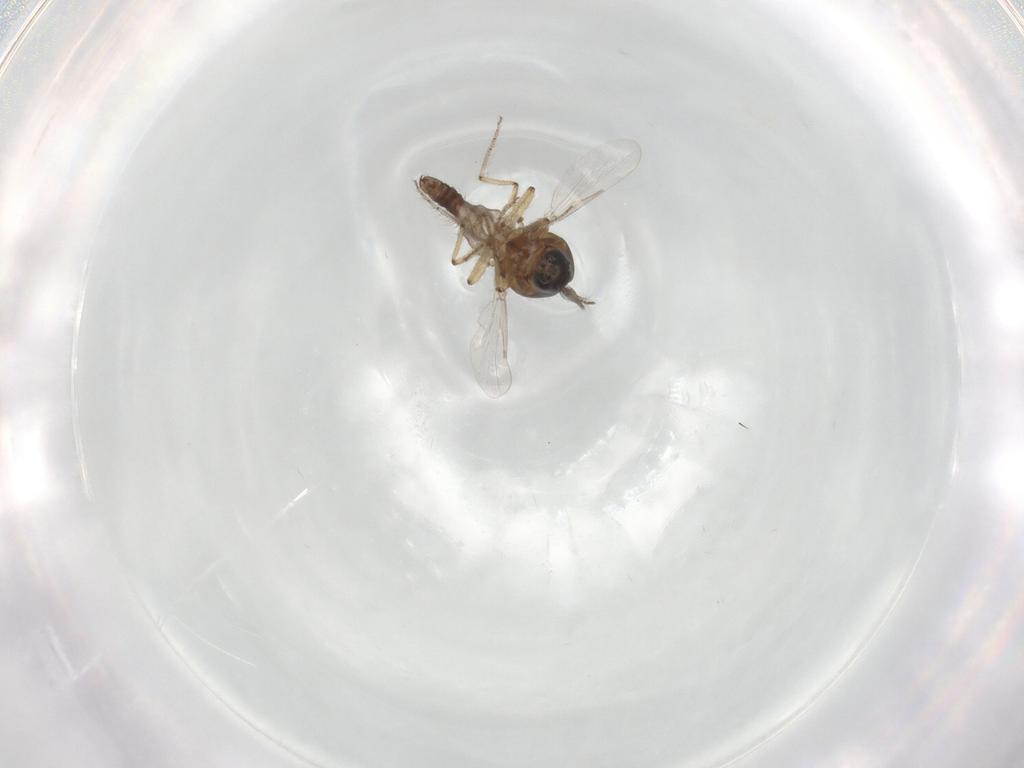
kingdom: Animalia
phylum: Arthropoda
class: Insecta
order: Diptera
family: Ceratopogonidae
